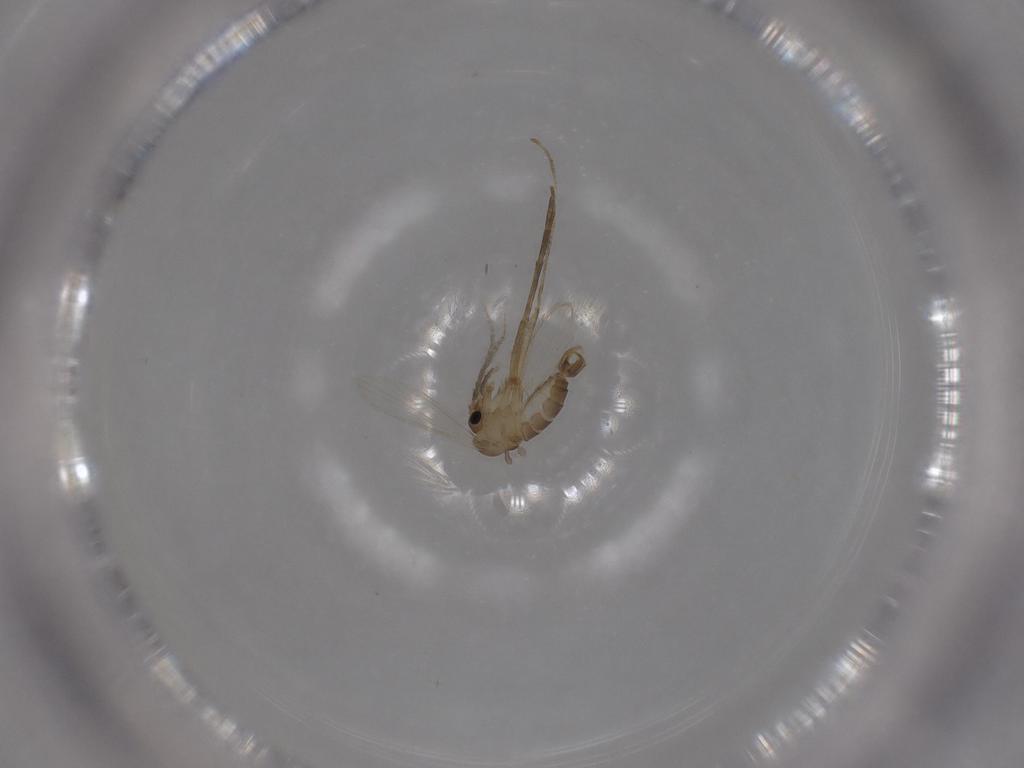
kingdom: Animalia
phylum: Arthropoda
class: Insecta
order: Diptera
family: Psychodidae
